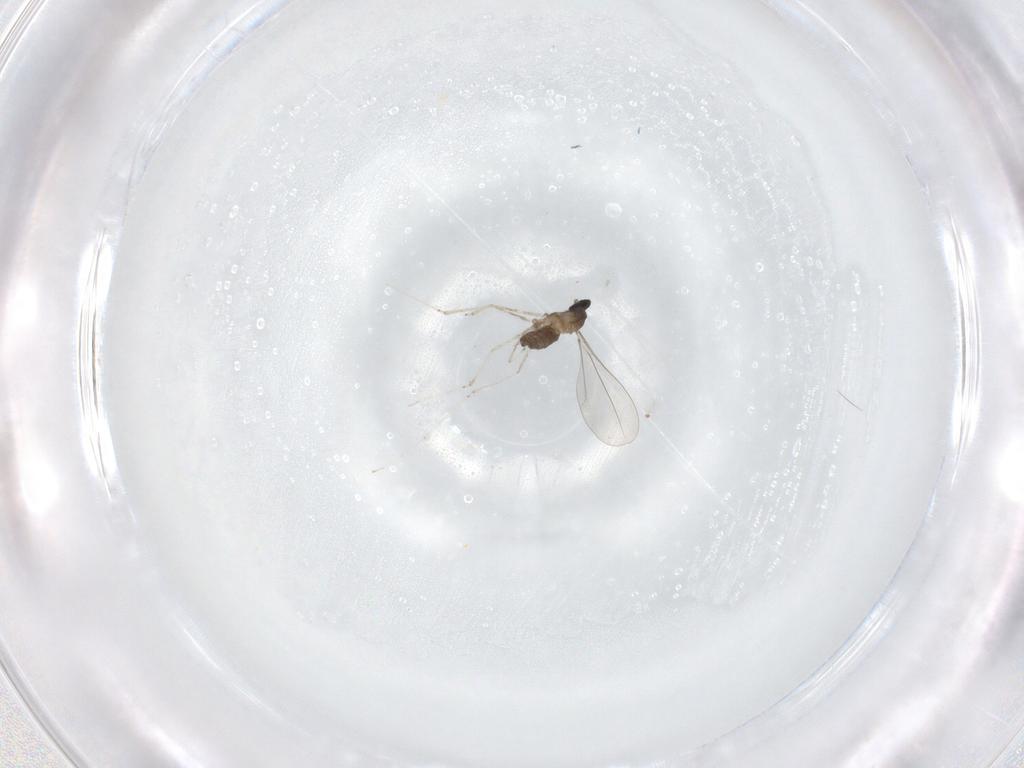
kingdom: Animalia
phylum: Arthropoda
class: Insecta
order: Diptera
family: Cecidomyiidae
